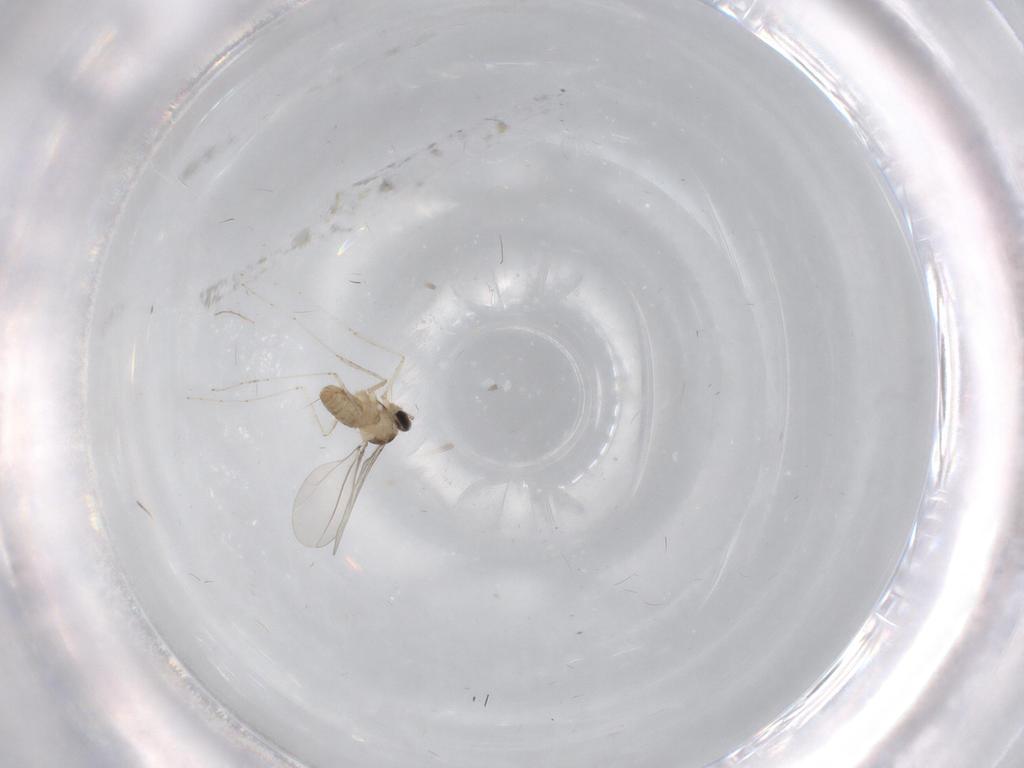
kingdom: Animalia
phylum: Arthropoda
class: Insecta
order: Diptera
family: Cecidomyiidae
